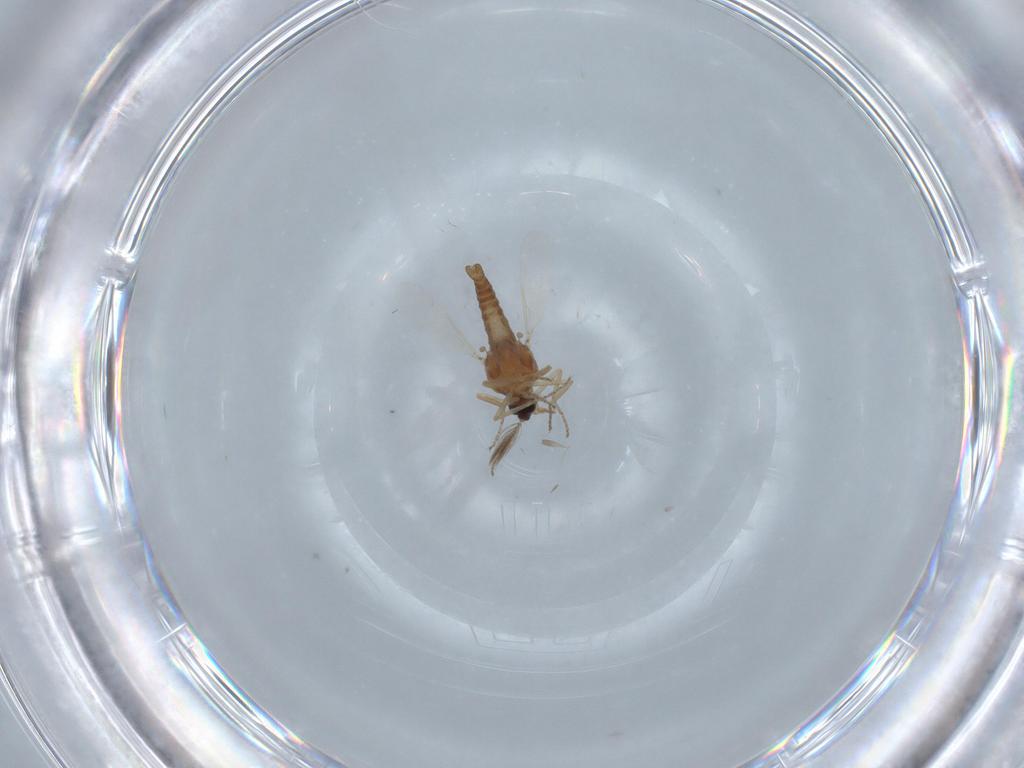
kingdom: Animalia
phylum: Arthropoda
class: Insecta
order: Diptera
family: Ceratopogonidae
